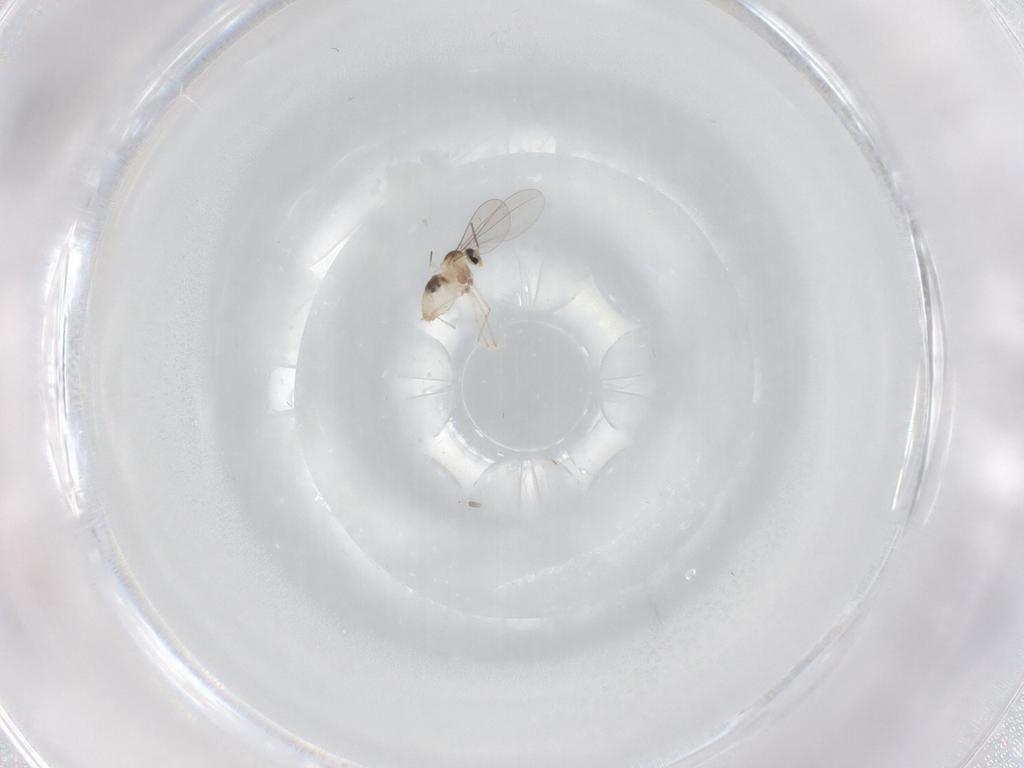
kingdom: Animalia
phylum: Arthropoda
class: Insecta
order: Diptera
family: Cecidomyiidae
